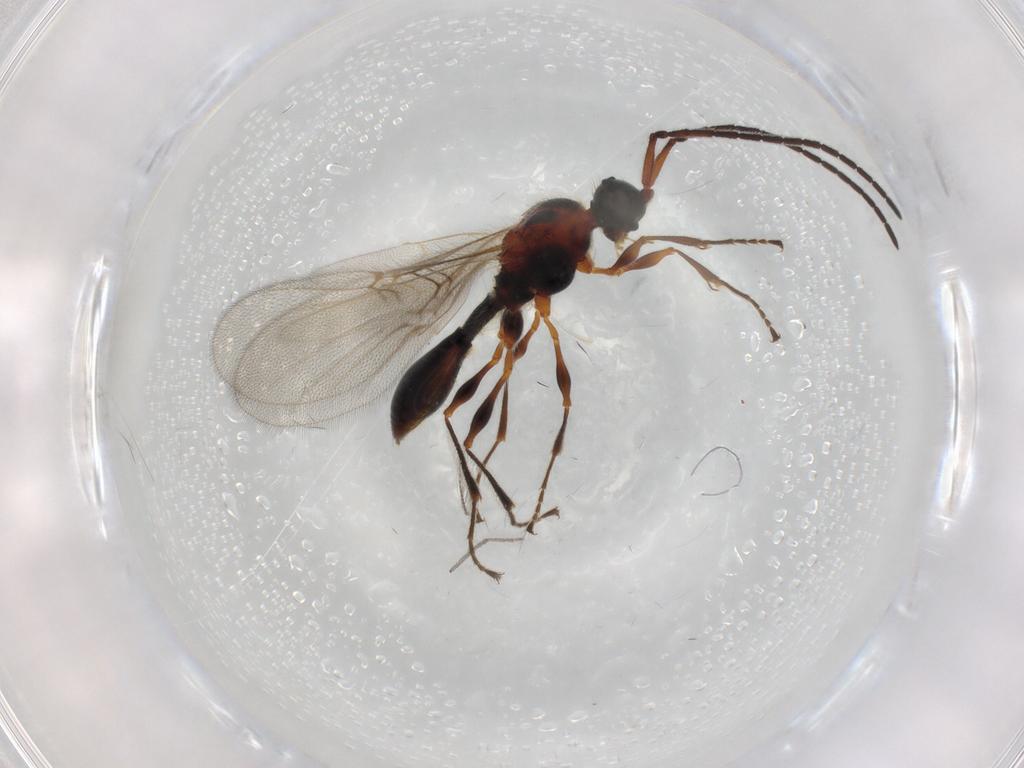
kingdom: Animalia
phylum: Arthropoda
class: Insecta
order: Hymenoptera
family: Diapriidae
